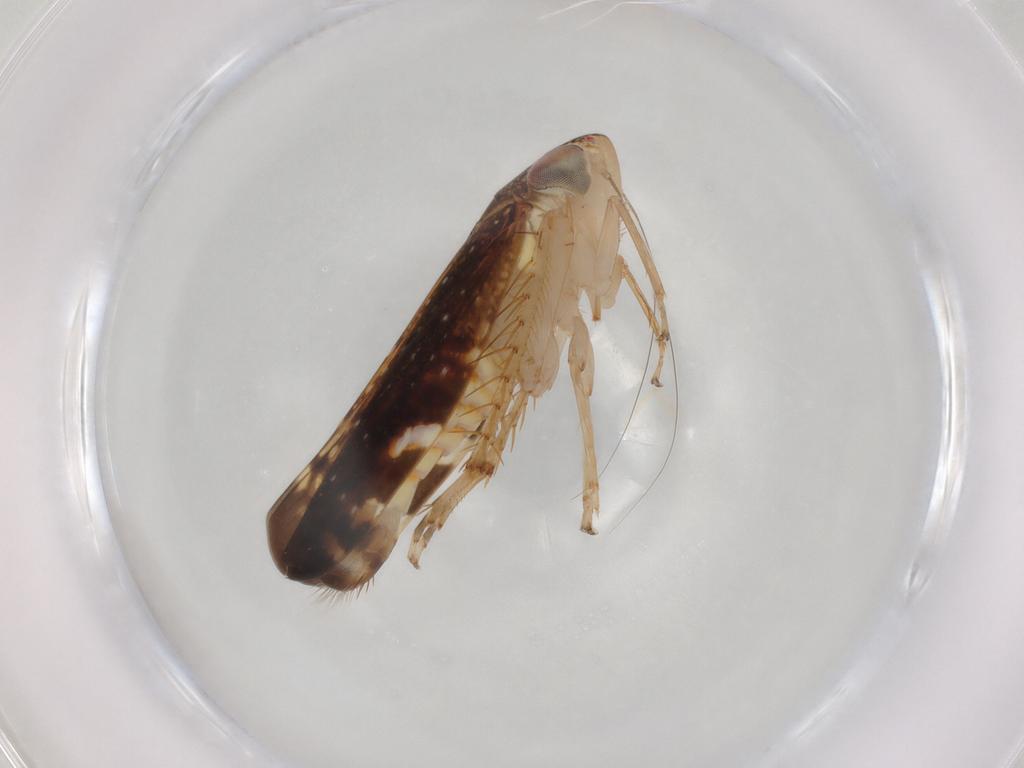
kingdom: Animalia
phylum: Arthropoda
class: Insecta
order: Hemiptera
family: Cicadellidae
